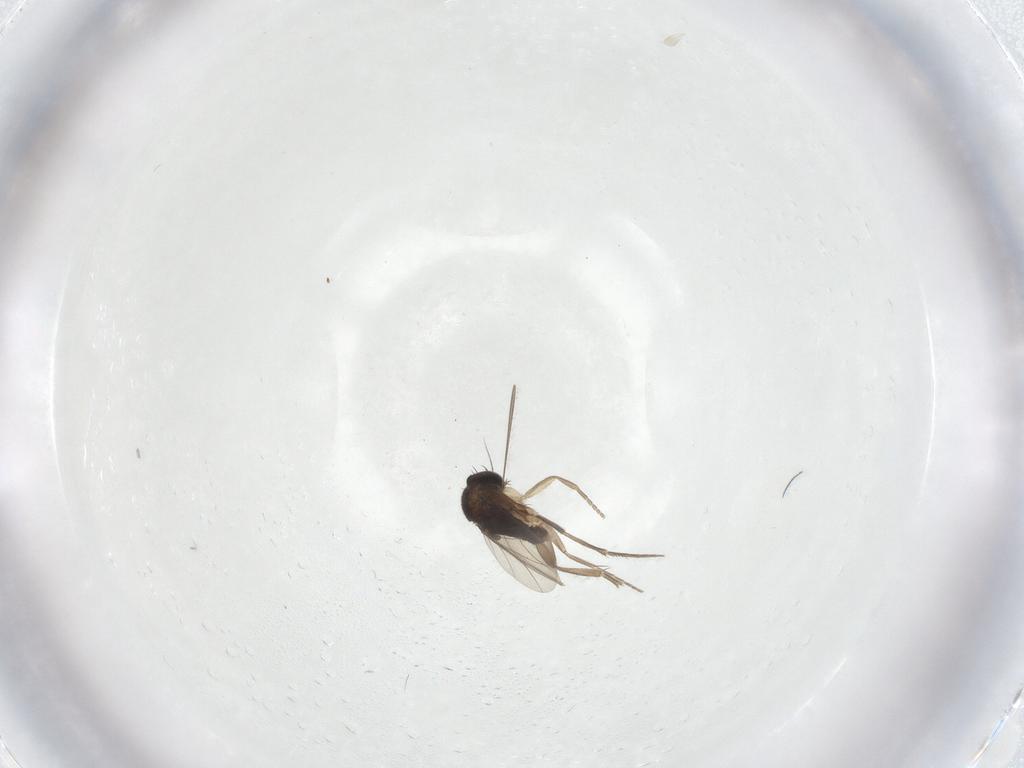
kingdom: Animalia
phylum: Arthropoda
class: Insecta
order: Diptera
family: Phoridae
